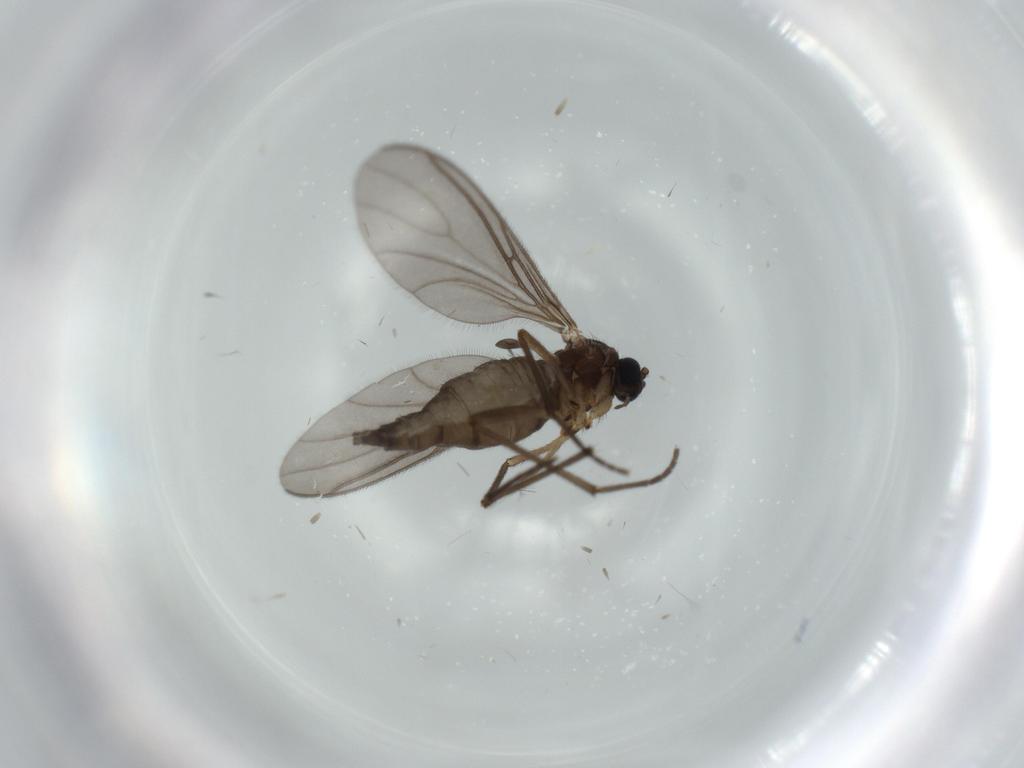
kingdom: Animalia
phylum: Arthropoda
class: Insecta
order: Diptera
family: Sciaridae
